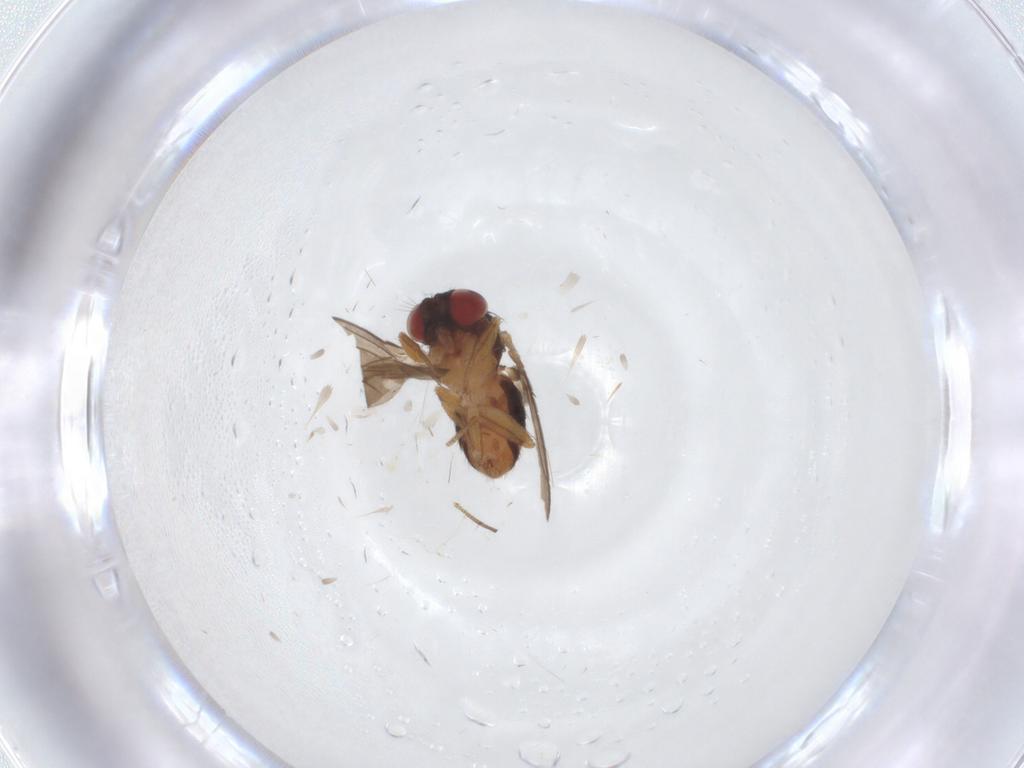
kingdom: Animalia
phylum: Arthropoda
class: Insecta
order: Diptera
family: Drosophilidae
